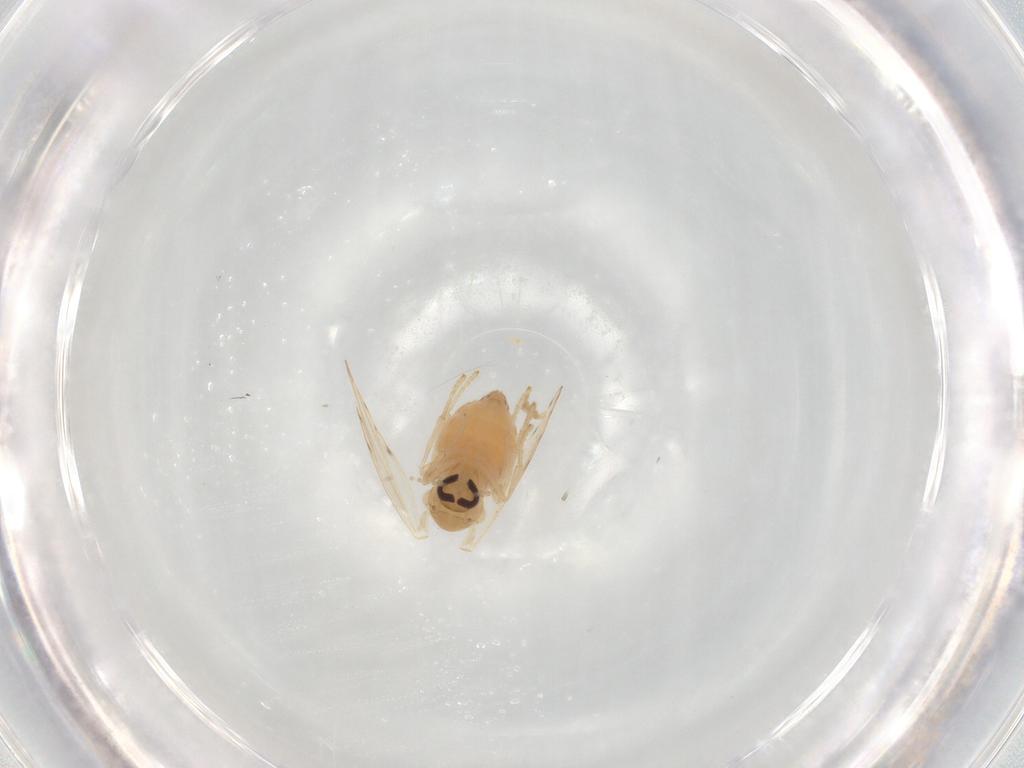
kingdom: Animalia
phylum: Arthropoda
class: Insecta
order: Diptera
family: Psychodidae
